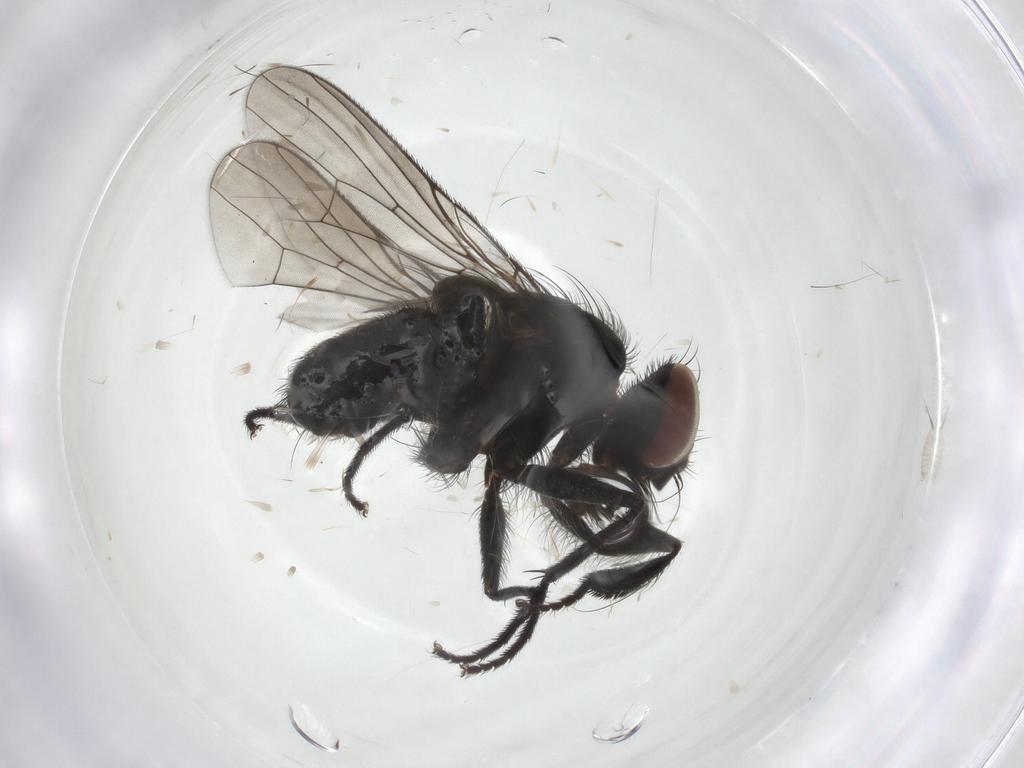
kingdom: Animalia
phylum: Arthropoda
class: Insecta
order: Diptera
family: Muscidae
